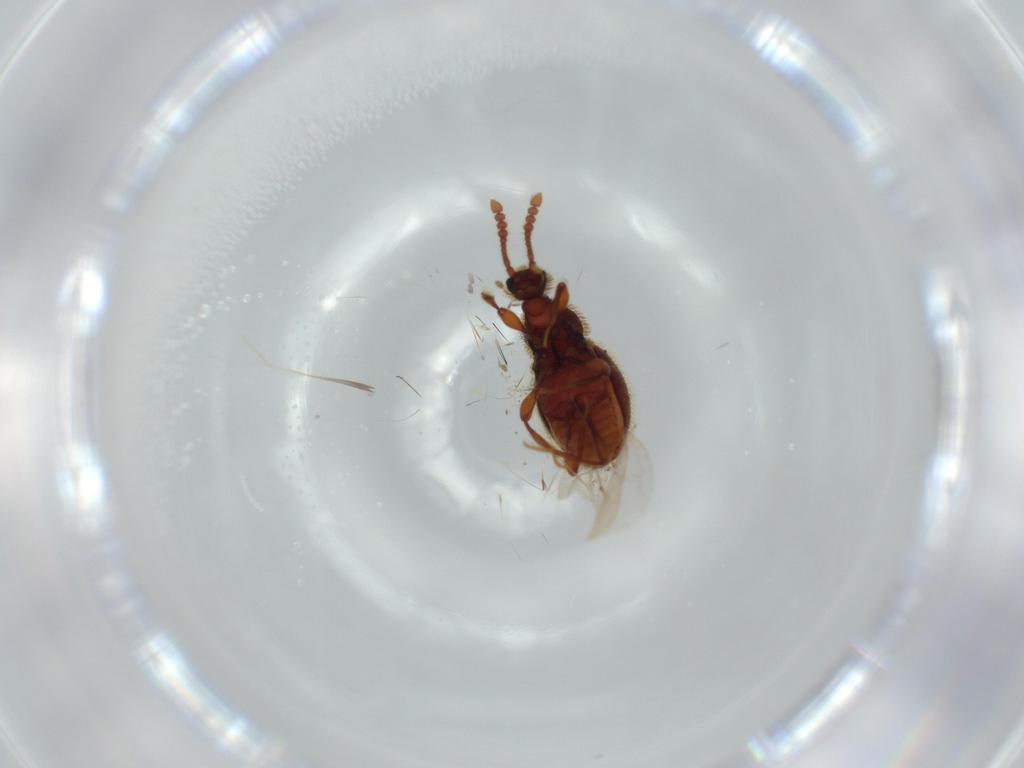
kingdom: Animalia
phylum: Arthropoda
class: Insecta
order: Coleoptera
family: Staphylinidae
